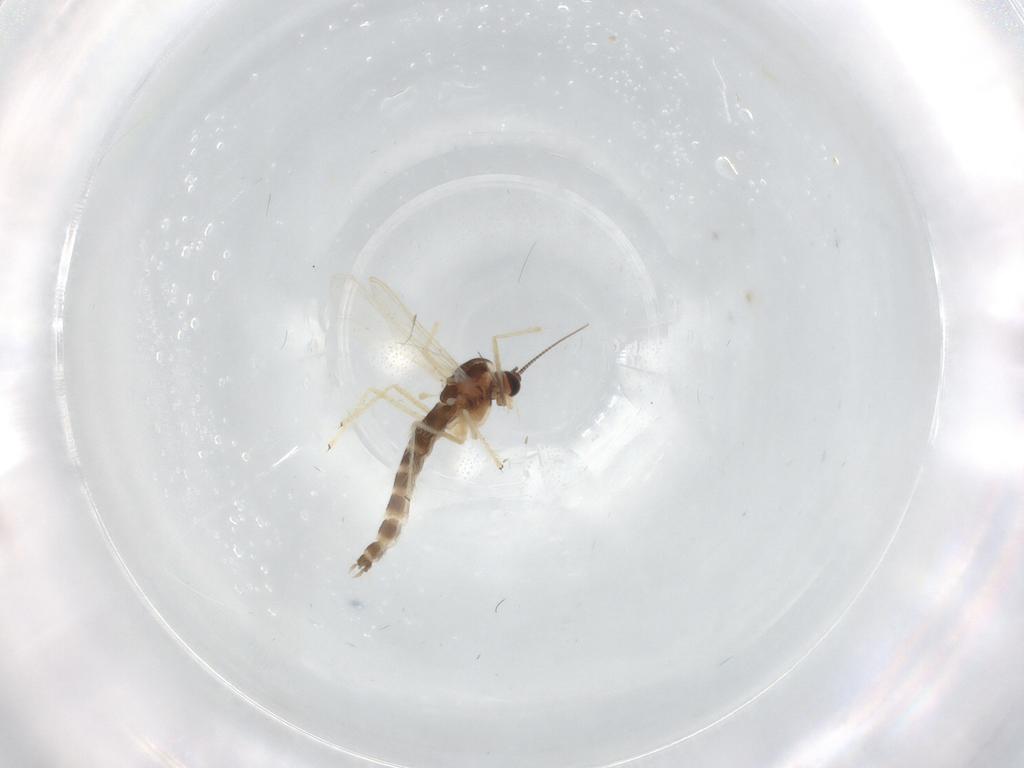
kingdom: Animalia
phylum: Arthropoda
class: Insecta
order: Diptera
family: Chironomidae
